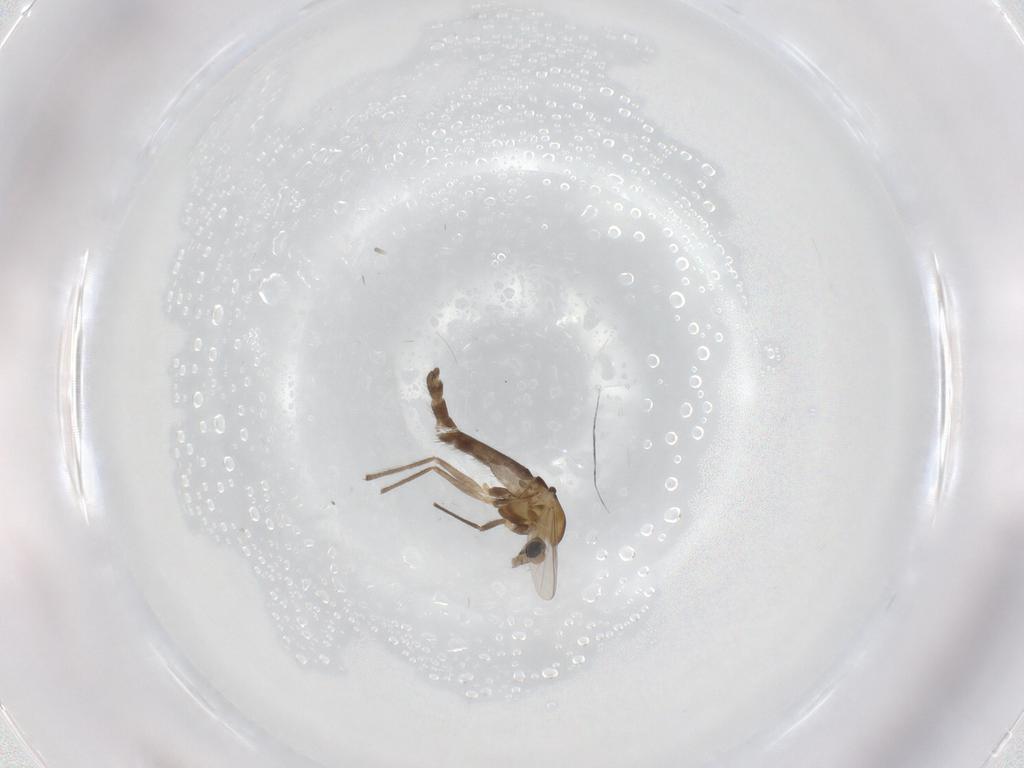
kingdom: Animalia
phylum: Arthropoda
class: Insecta
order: Diptera
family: Chironomidae
